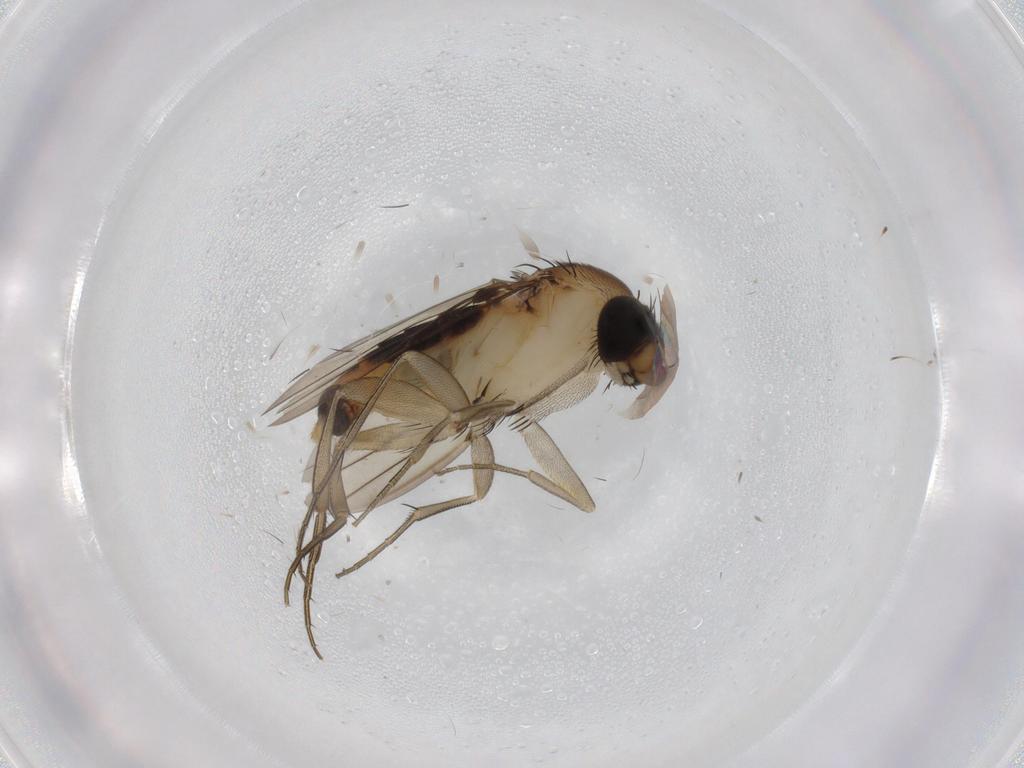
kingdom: Animalia
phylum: Arthropoda
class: Insecta
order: Diptera
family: Phoridae
